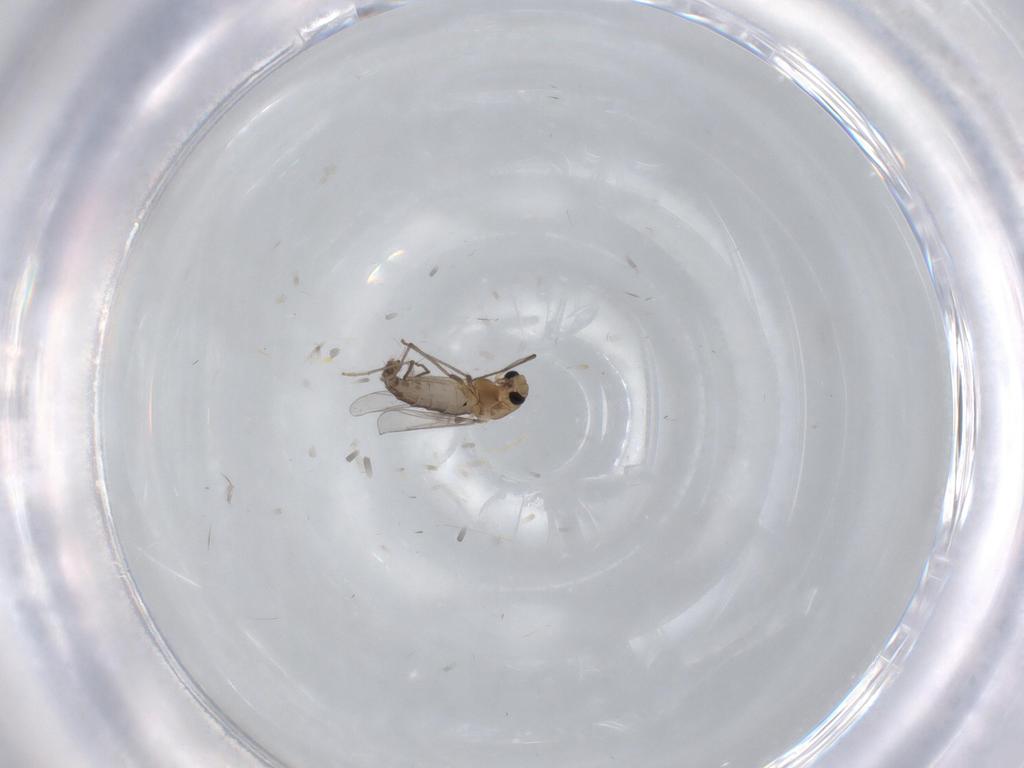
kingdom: Animalia
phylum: Arthropoda
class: Insecta
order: Diptera
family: Chironomidae
